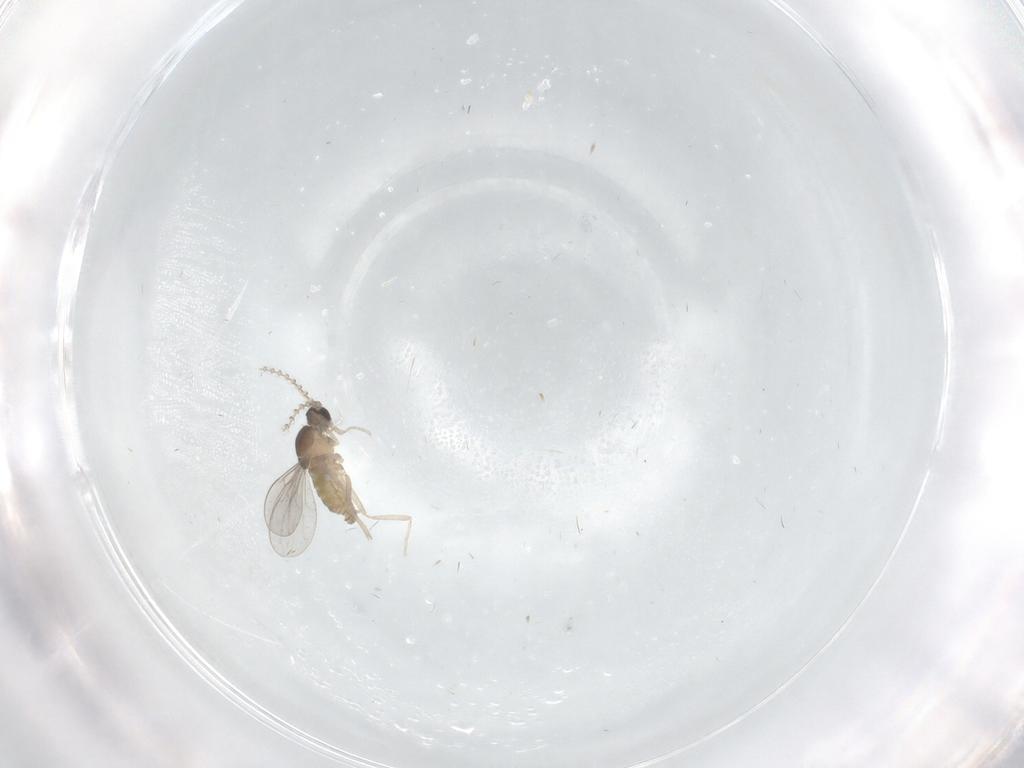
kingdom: Animalia
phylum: Arthropoda
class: Insecta
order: Diptera
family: Cecidomyiidae
